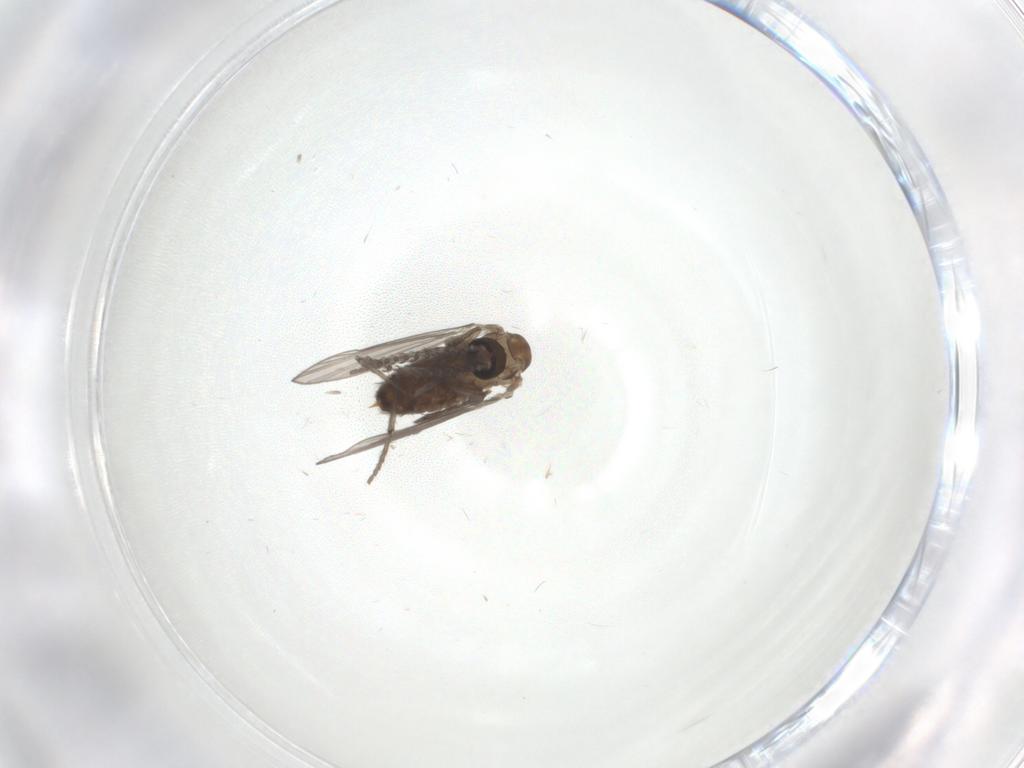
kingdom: Animalia
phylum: Arthropoda
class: Insecta
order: Diptera
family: Psychodidae
